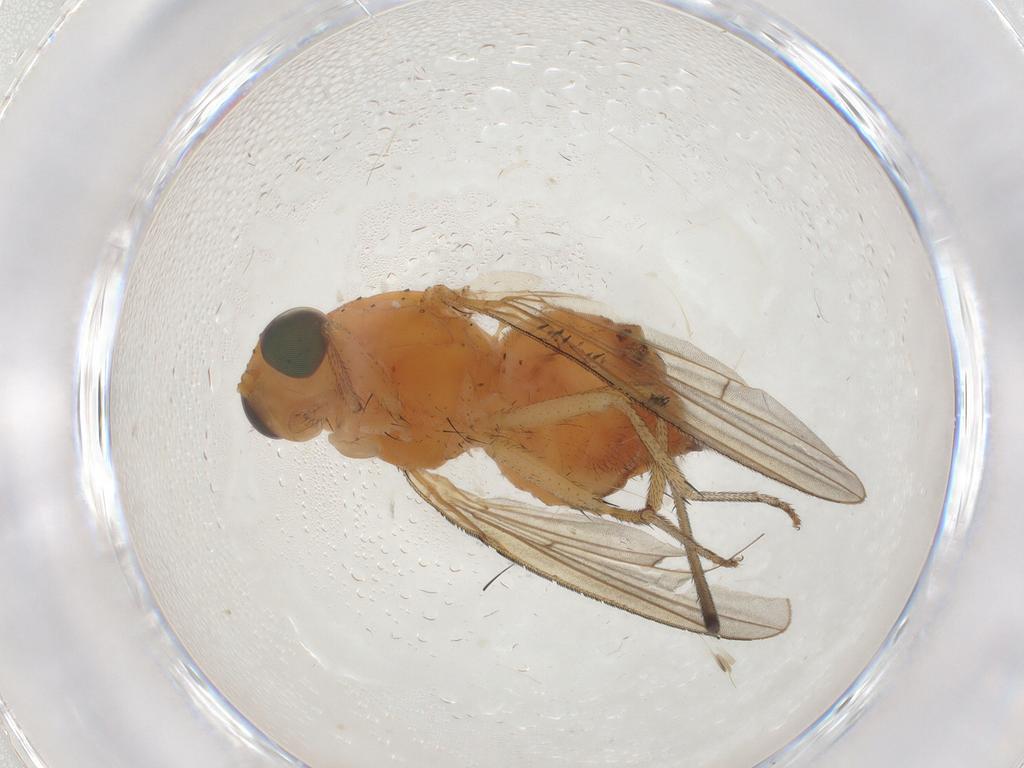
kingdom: Animalia
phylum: Arthropoda
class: Insecta
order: Diptera
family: Micropezidae
